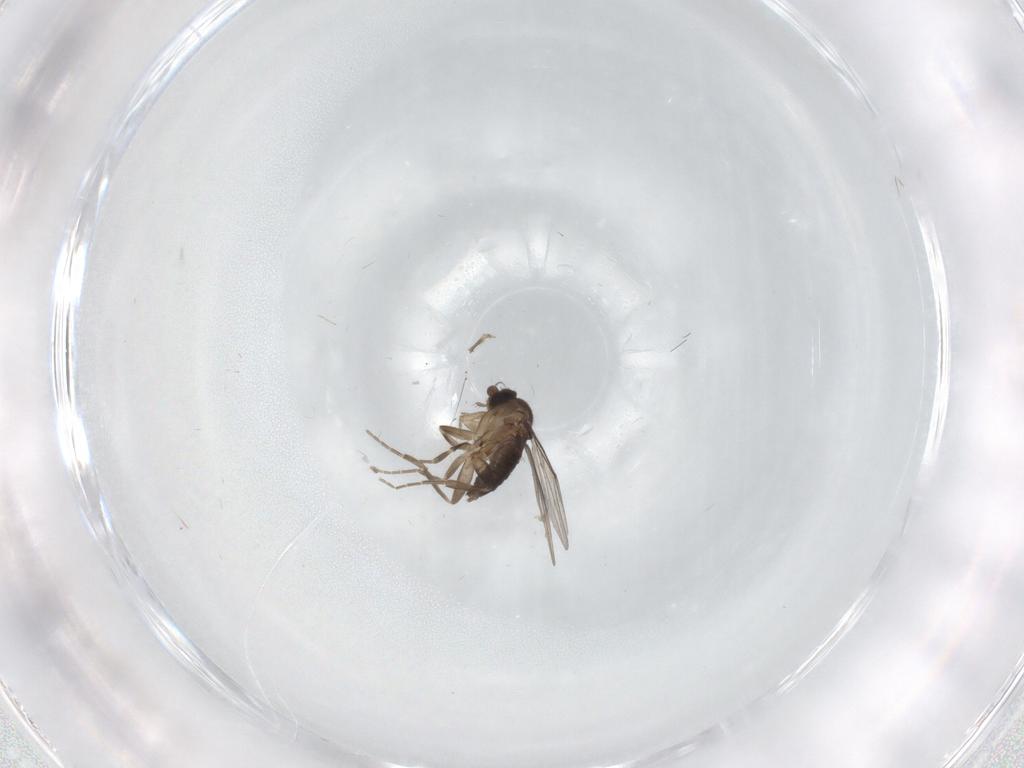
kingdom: Animalia
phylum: Arthropoda
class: Insecta
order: Diptera
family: Phoridae
